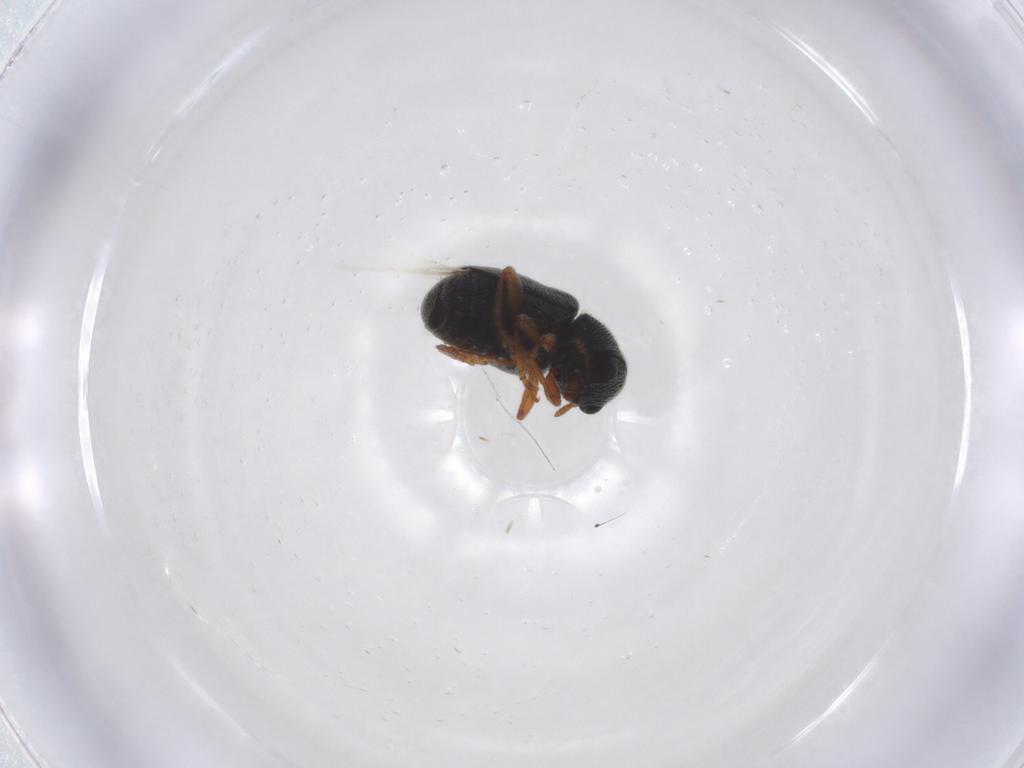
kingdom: Animalia
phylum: Arthropoda
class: Insecta
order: Coleoptera
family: Anthribidae
